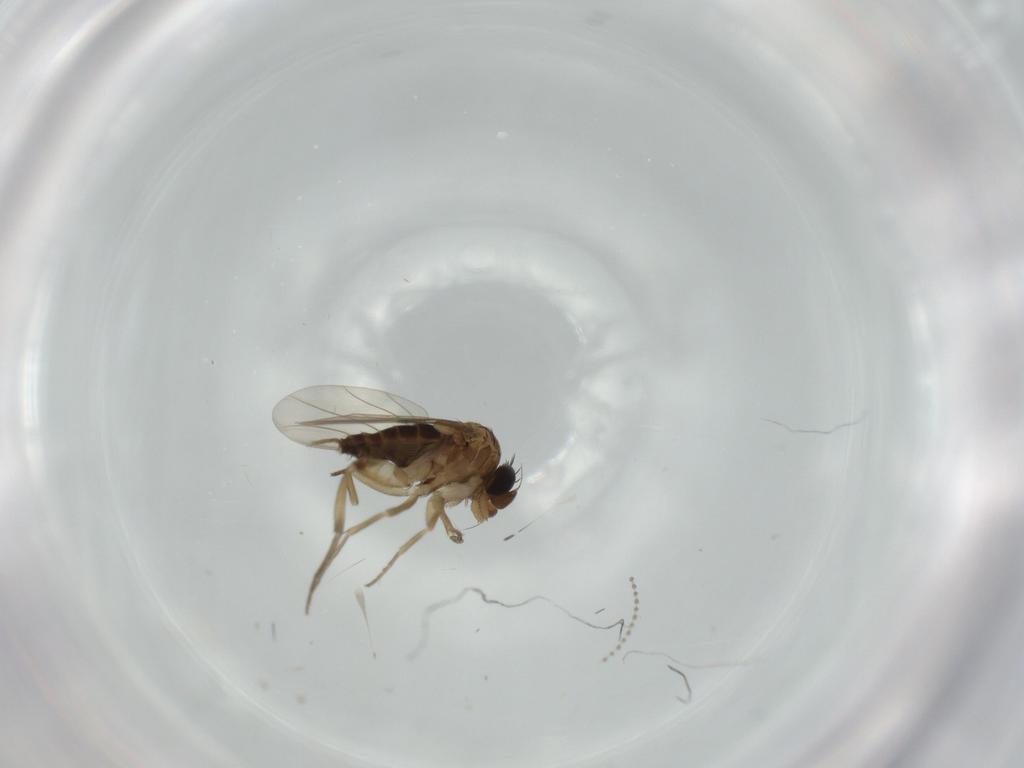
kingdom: Animalia
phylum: Arthropoda
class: Insecta
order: Diptera
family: Phoridae
